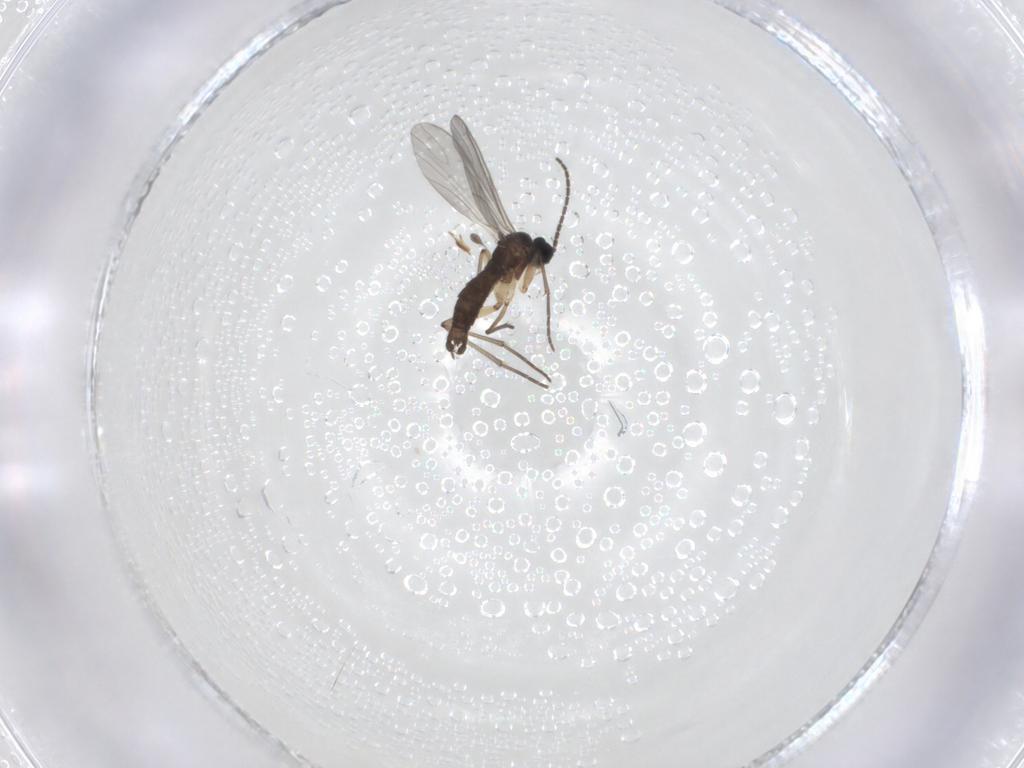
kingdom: Animalia
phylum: Arthropoda
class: Insecta
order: Diptera
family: Sciaridae
